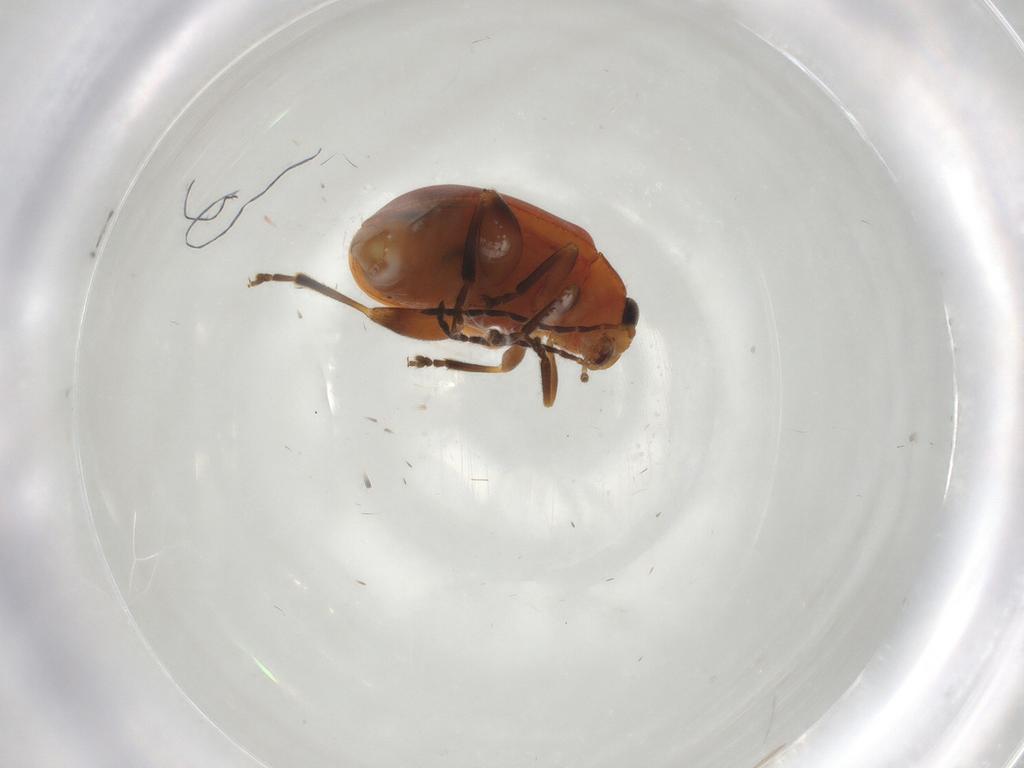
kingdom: Animalia
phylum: Arthropoda
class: Insecta
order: Coleoptera
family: Chrysomelidae
